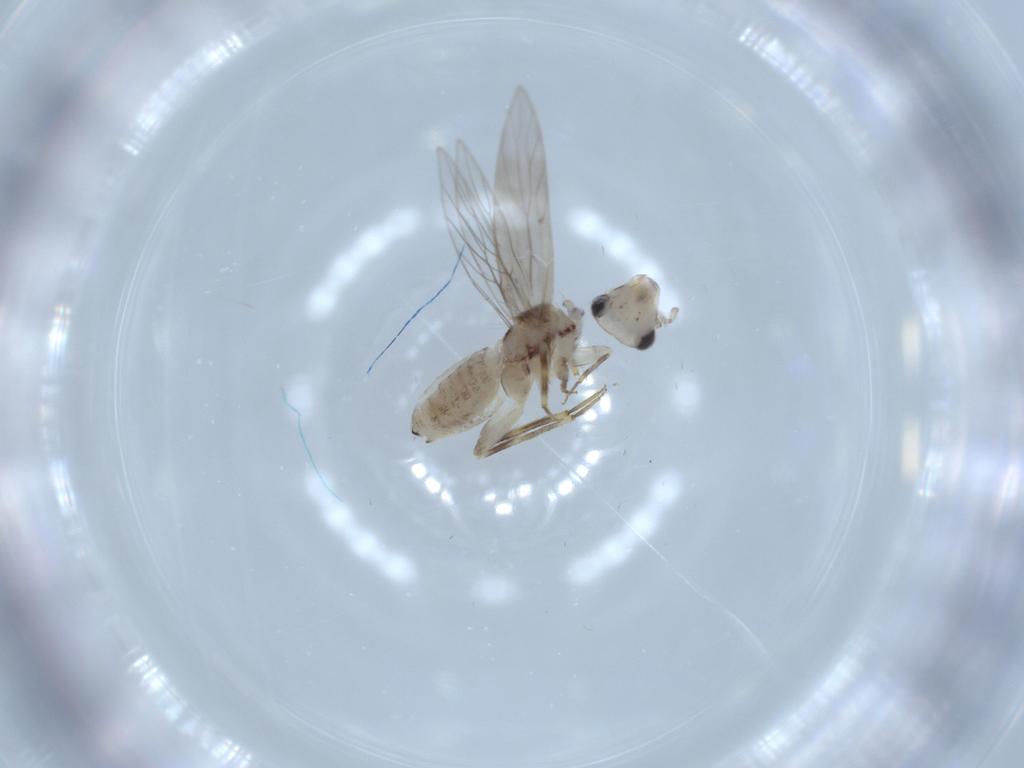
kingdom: Animalia
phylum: Arthropoda
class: Insecta
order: Psocodea
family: Lepidopsocidae
